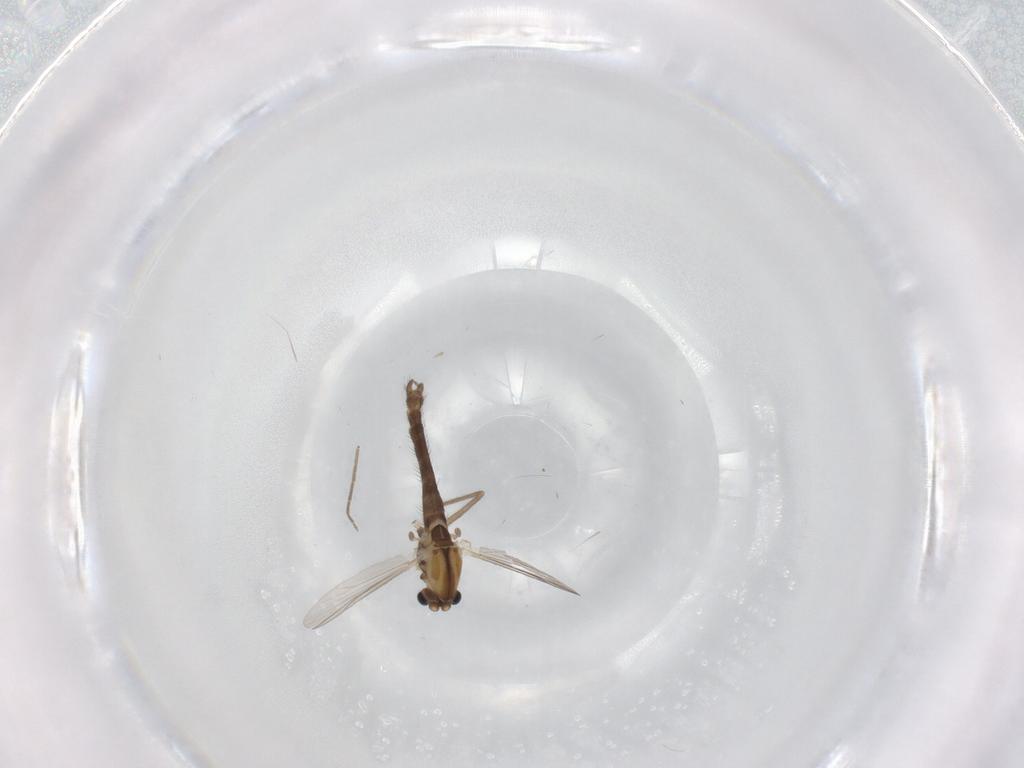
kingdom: Animalia
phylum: Arthropoda
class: Insecta
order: Diptera
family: Chironomidae
